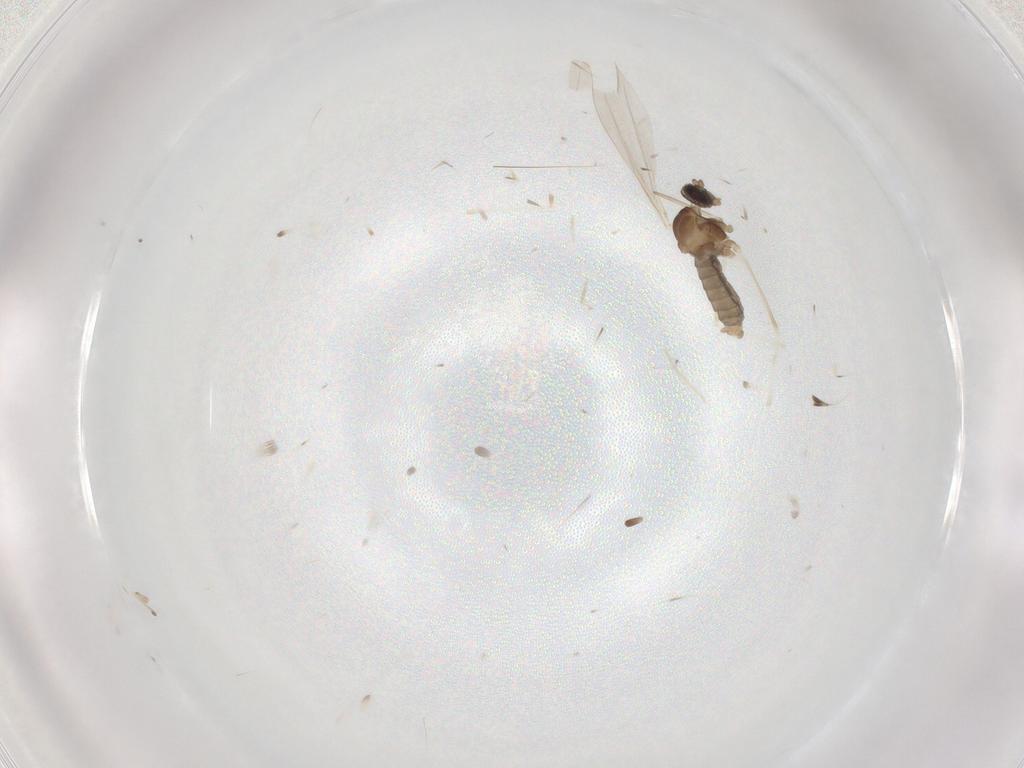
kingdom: Animalia
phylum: Arthropoda
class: Insecta
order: Diptera
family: Cecidomyiidae
